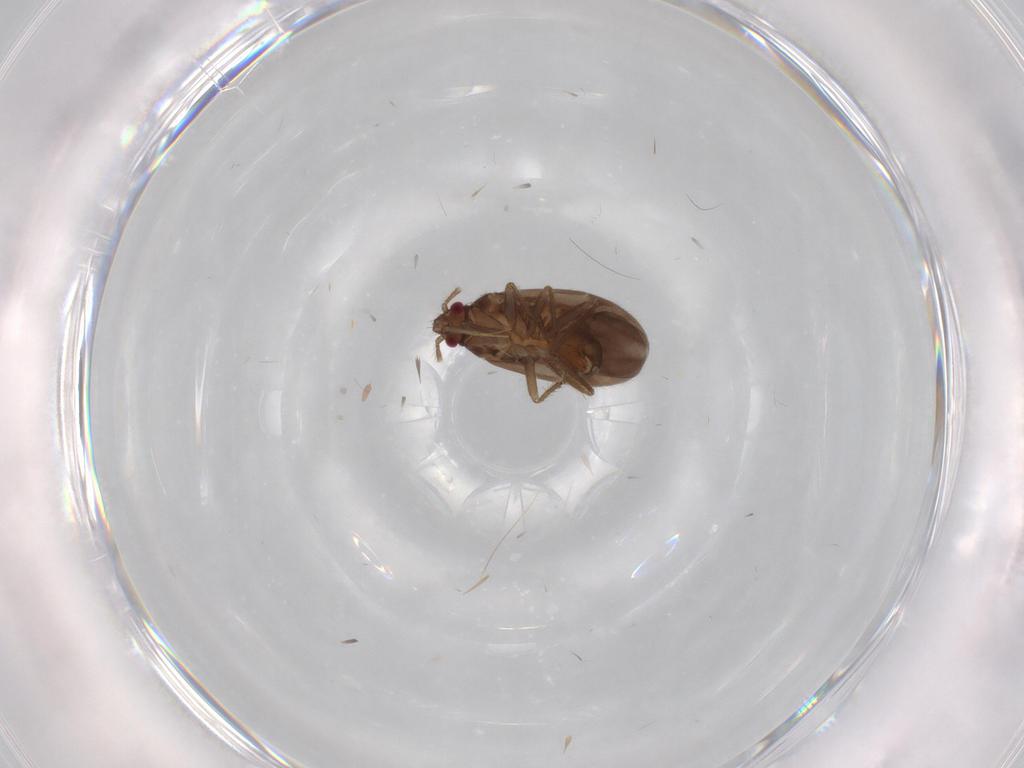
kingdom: Animalia
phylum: Arthropoda
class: Insecta
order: Hemiptera
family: Ceratocombidae
